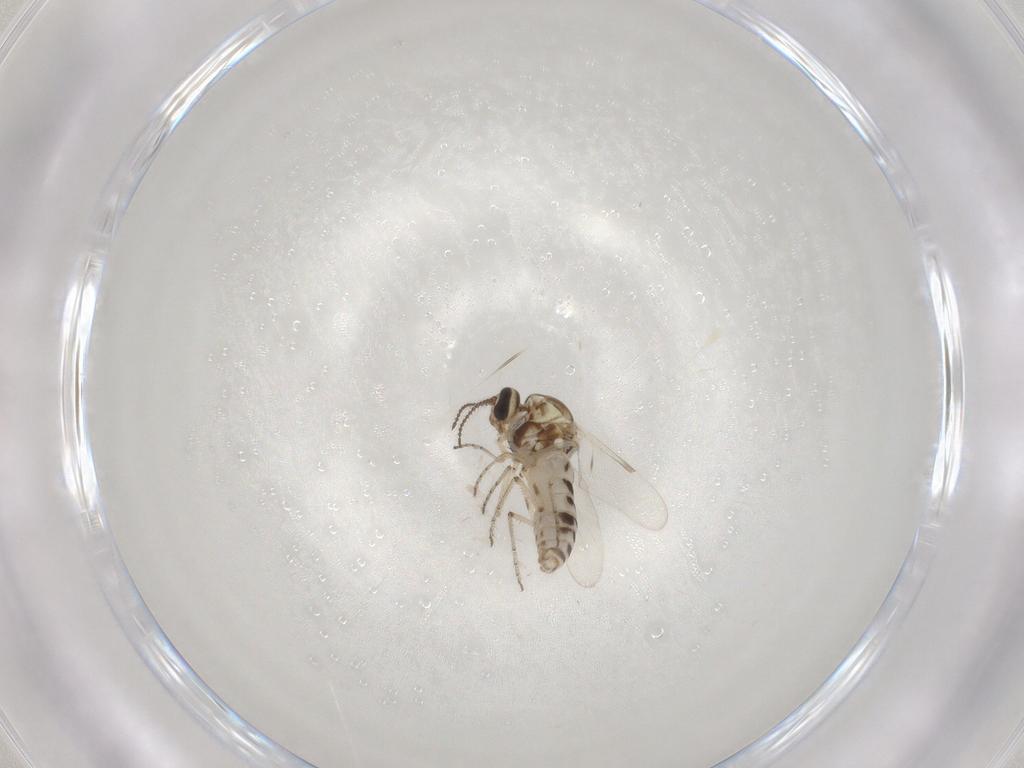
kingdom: Animalia
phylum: Arthropoda
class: Insecta
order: Diptera
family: Ceratopogonidae
